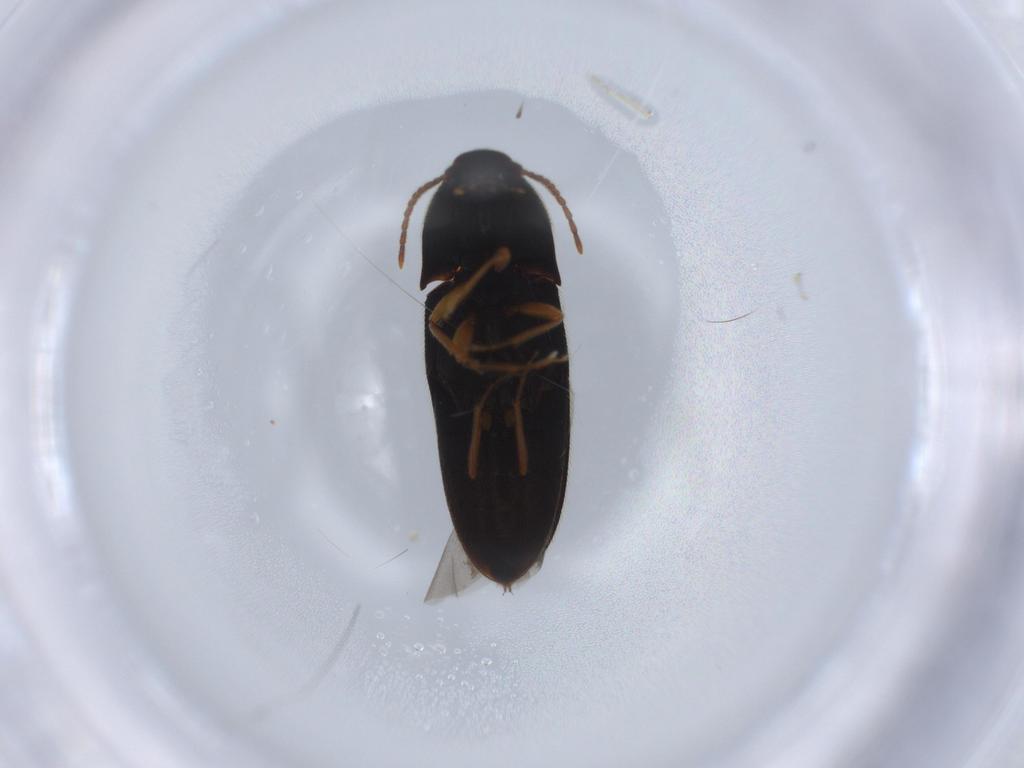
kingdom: Animalia
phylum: Arthropoda
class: Insecta
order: Coleoptera
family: Elateridae
